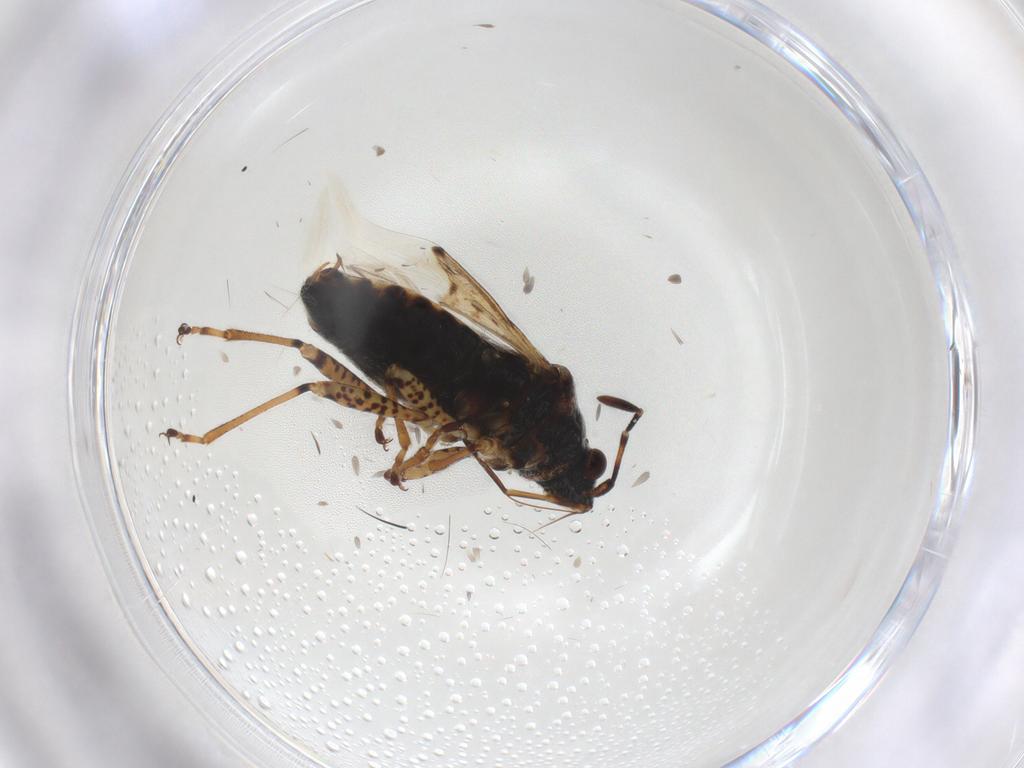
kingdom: Animalia
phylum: Arthropoda
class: Insecta
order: Hemiptera
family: Lygaeidae
